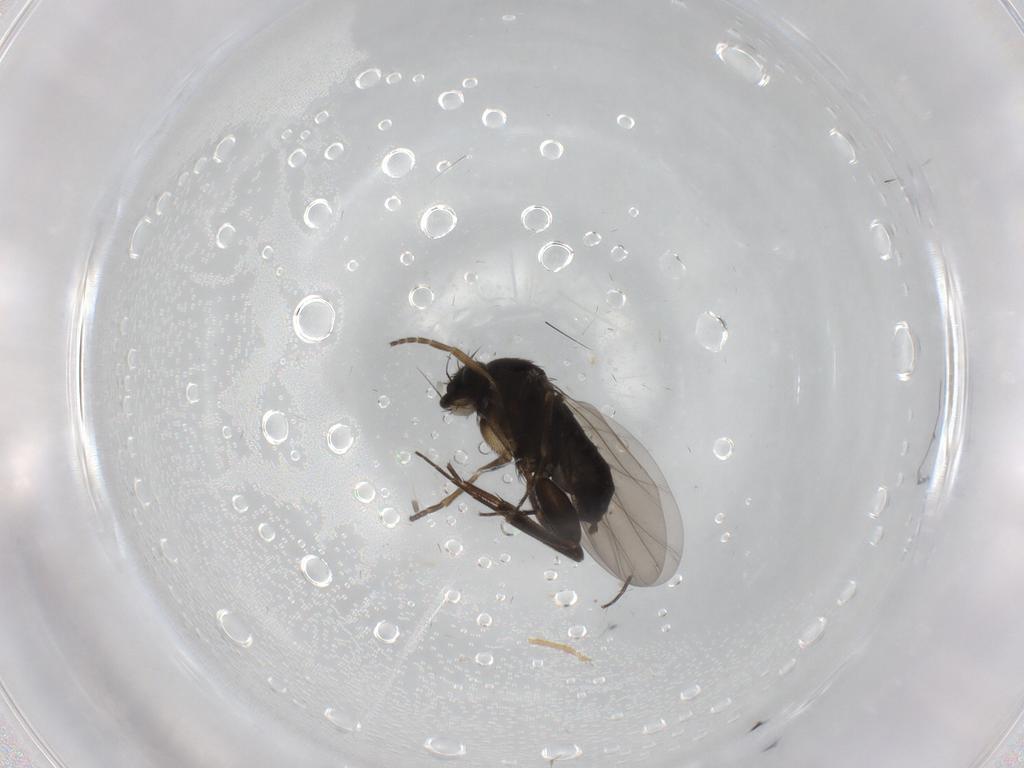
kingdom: Animalia
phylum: Arthropoda
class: Insecta
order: Diptera
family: Phoridae
